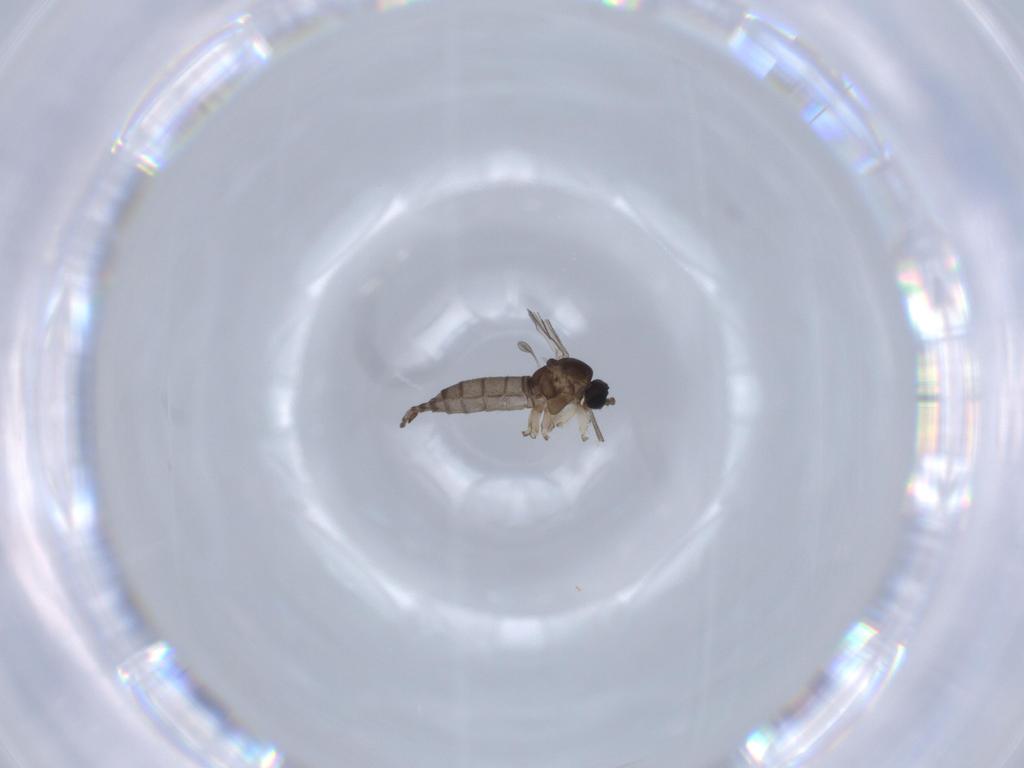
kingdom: Animalia
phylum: Arthropoda
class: Insecta
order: Diptera
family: Sciaridae
